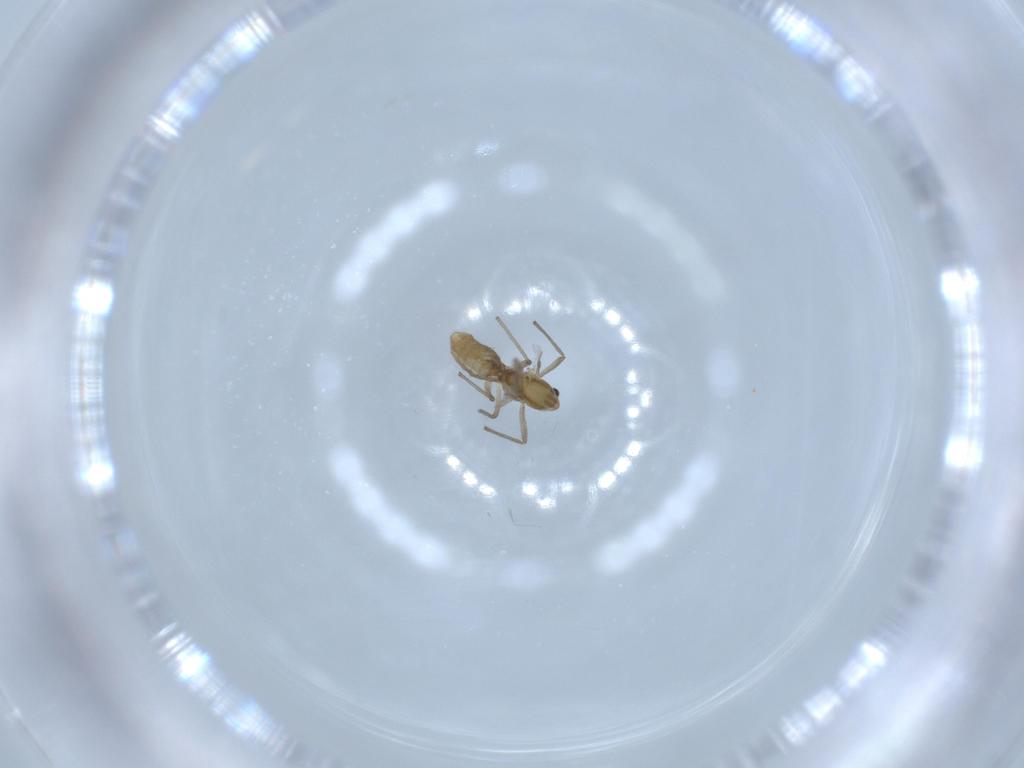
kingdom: Animalia
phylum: Arthropoda
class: Insecta
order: Diptera
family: Chironomidae
